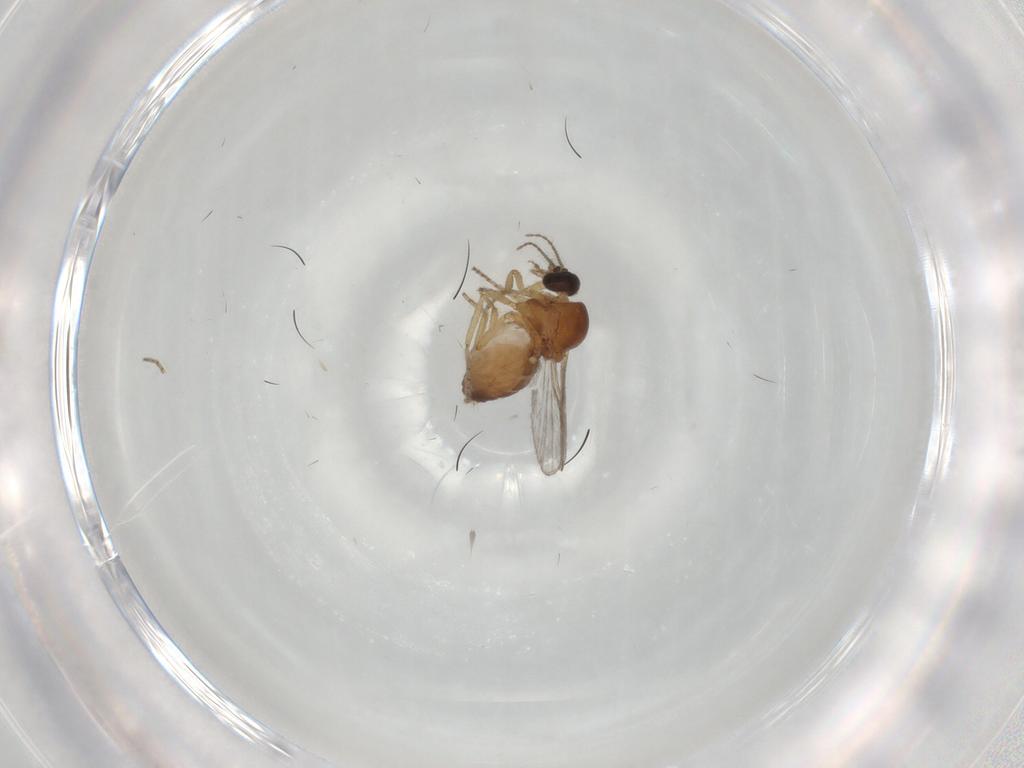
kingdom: Animalia
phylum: Arthropoda
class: Insecta
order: Diptera
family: Ceratopogonidae
